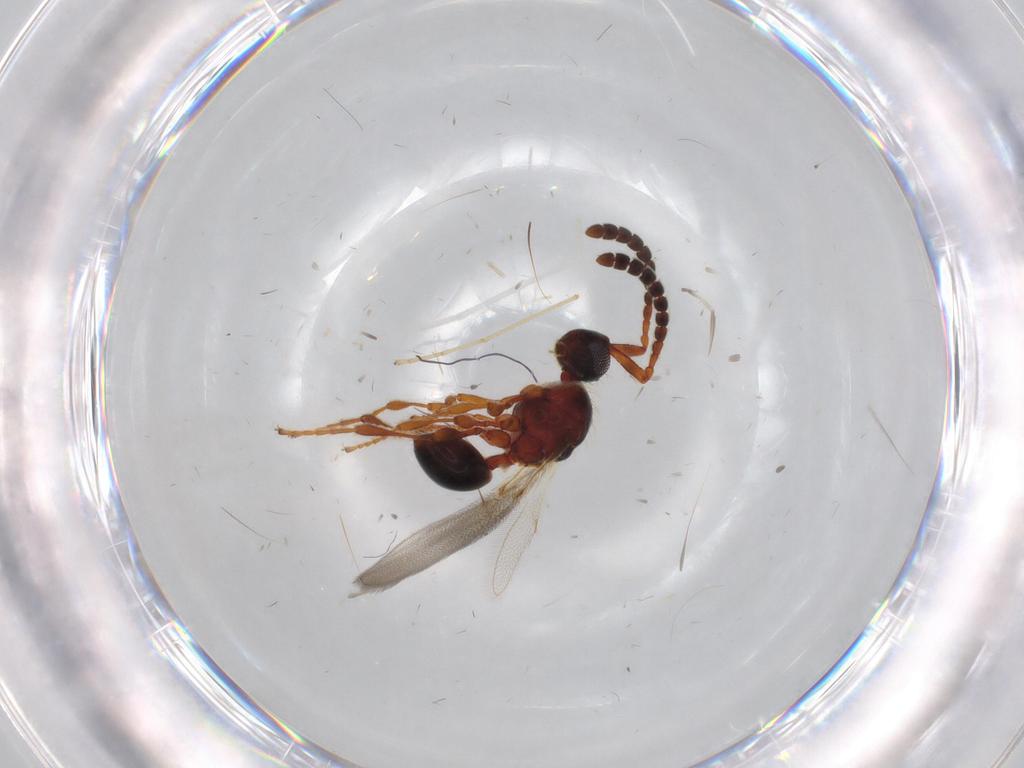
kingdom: Animalia
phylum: Arthropoda
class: Insecta
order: Hymenoptera
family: Diapriidae
